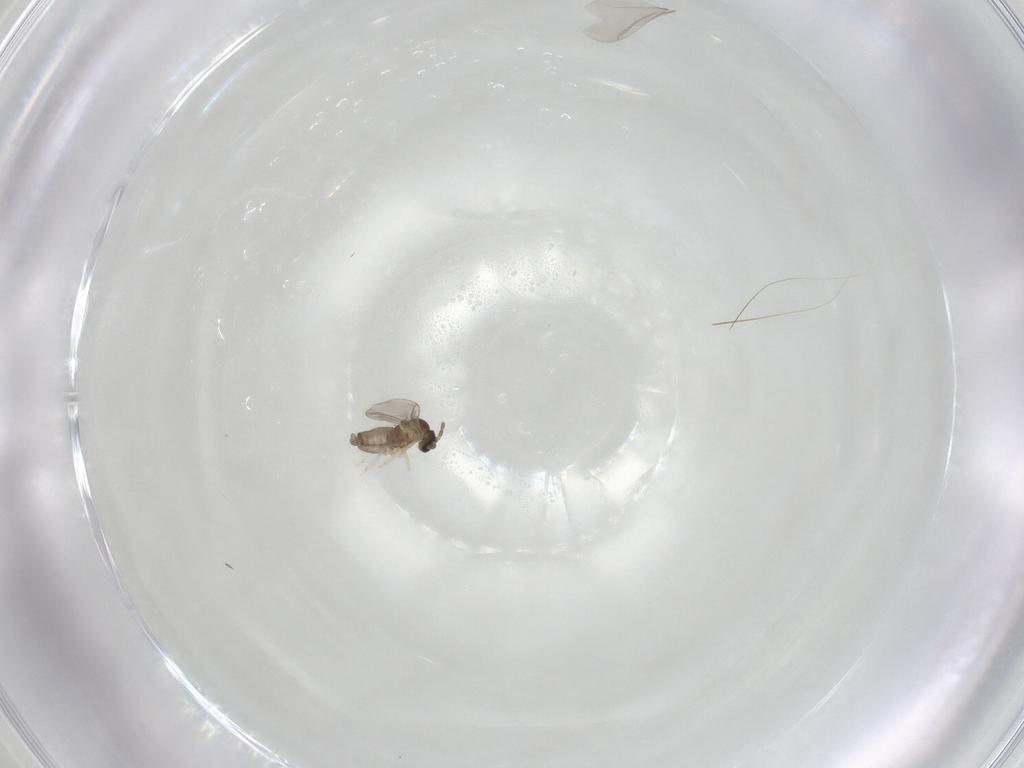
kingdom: Animalia
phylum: Arthropoda
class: Insecta
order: Diptera
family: Cecidomyiidae
